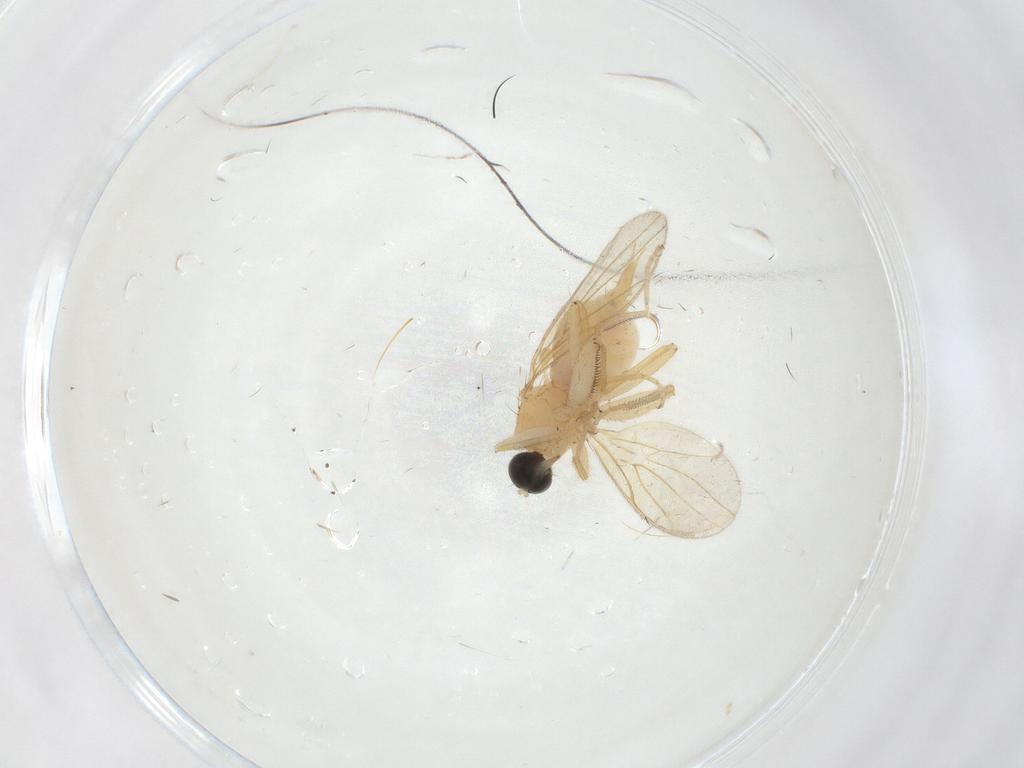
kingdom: Animalia
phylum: Arthropoda
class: Insecta
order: Diptera
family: Hybotidae
